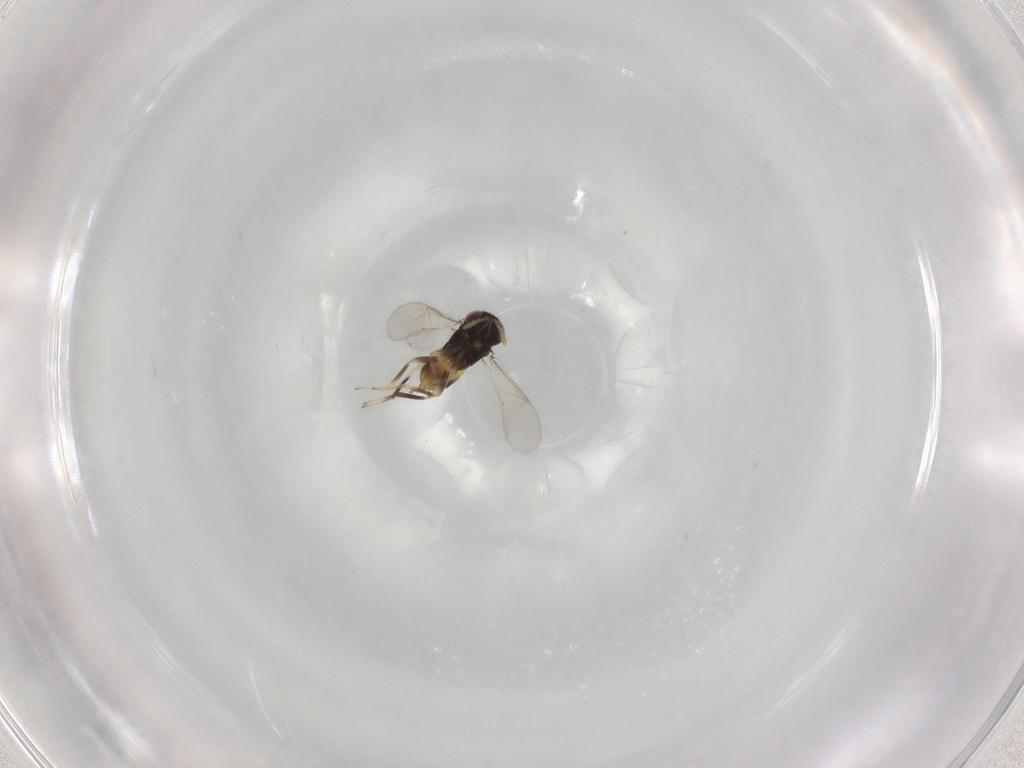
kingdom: Animalia
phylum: Arthropoda
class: Insecta
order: Hymenoptera
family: Aphelinidae
